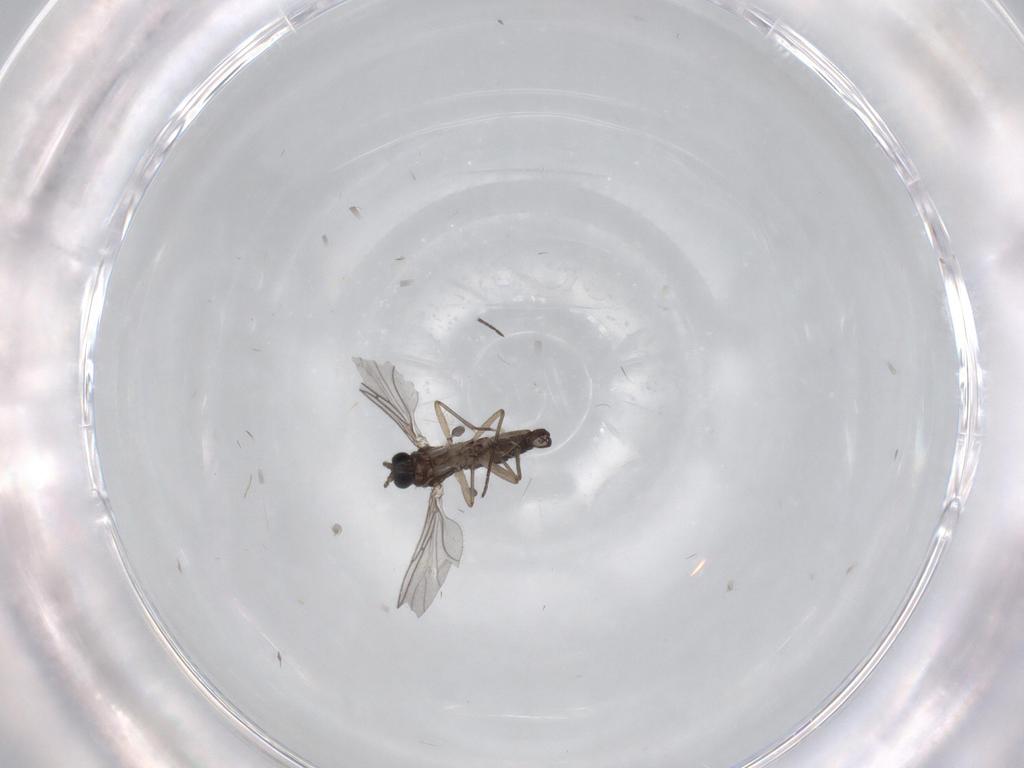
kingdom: Animalia
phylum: Arthropoda
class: Insecta
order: Diptera
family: Sciaridae
